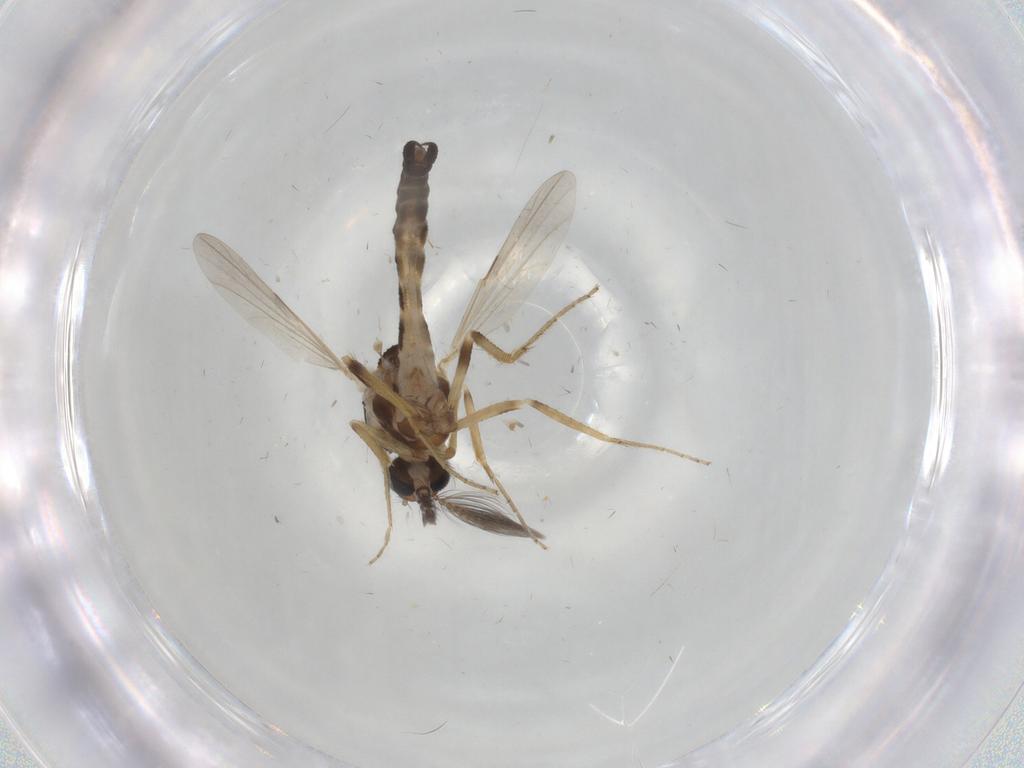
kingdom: Animalia
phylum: Arthropoda
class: Insecta
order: Diptera
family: Ceratopogonidae
